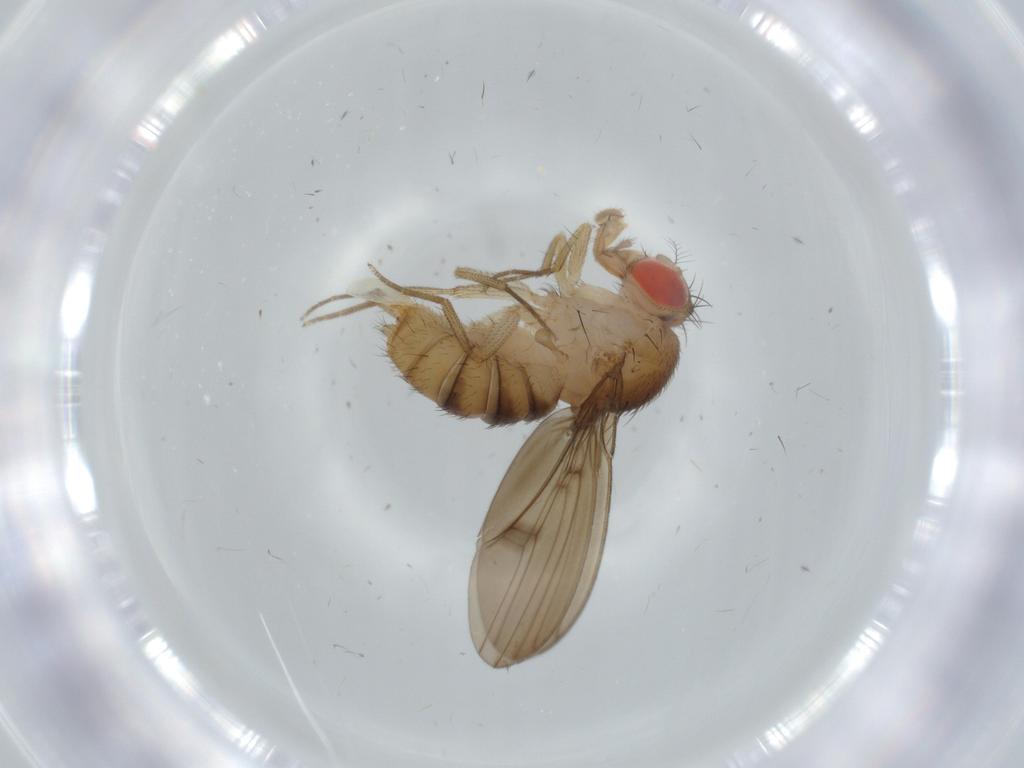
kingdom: Animalia
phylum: Arthropoda
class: Insecta
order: Diptera
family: Drosophilidae
